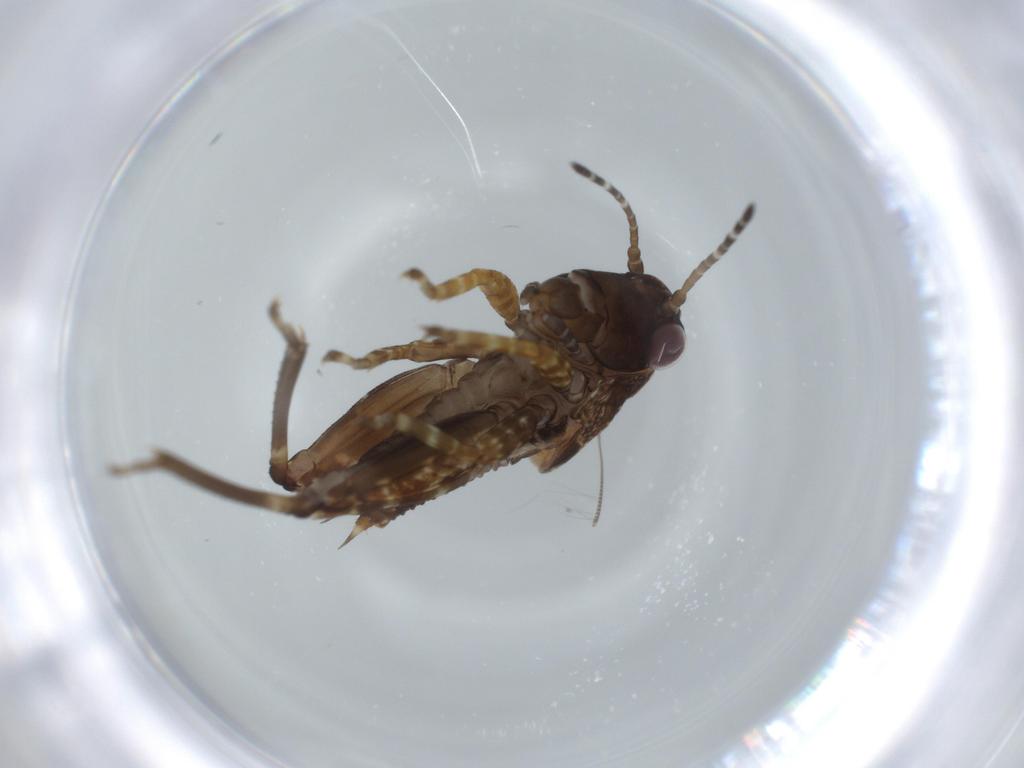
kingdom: Animalia
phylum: Arthropoda
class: Insecta
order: Orthoptera
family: Tetrigidae
